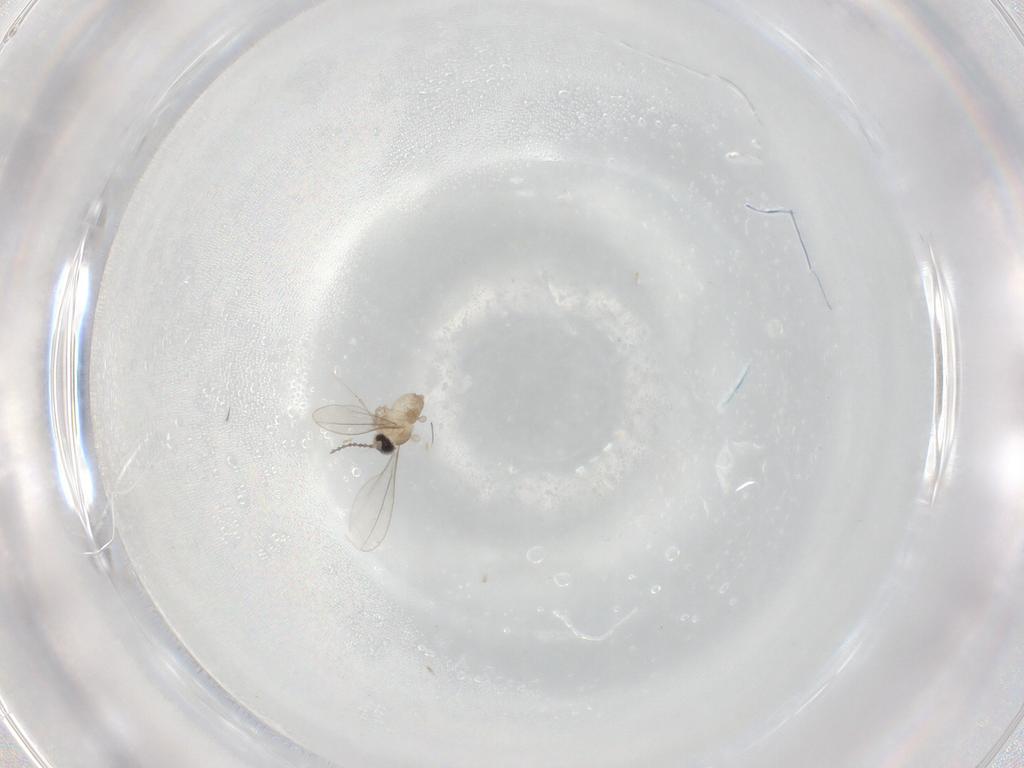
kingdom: Animalia
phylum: Arthropoda
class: Insecta
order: Diptera
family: Cecidomyiidae
